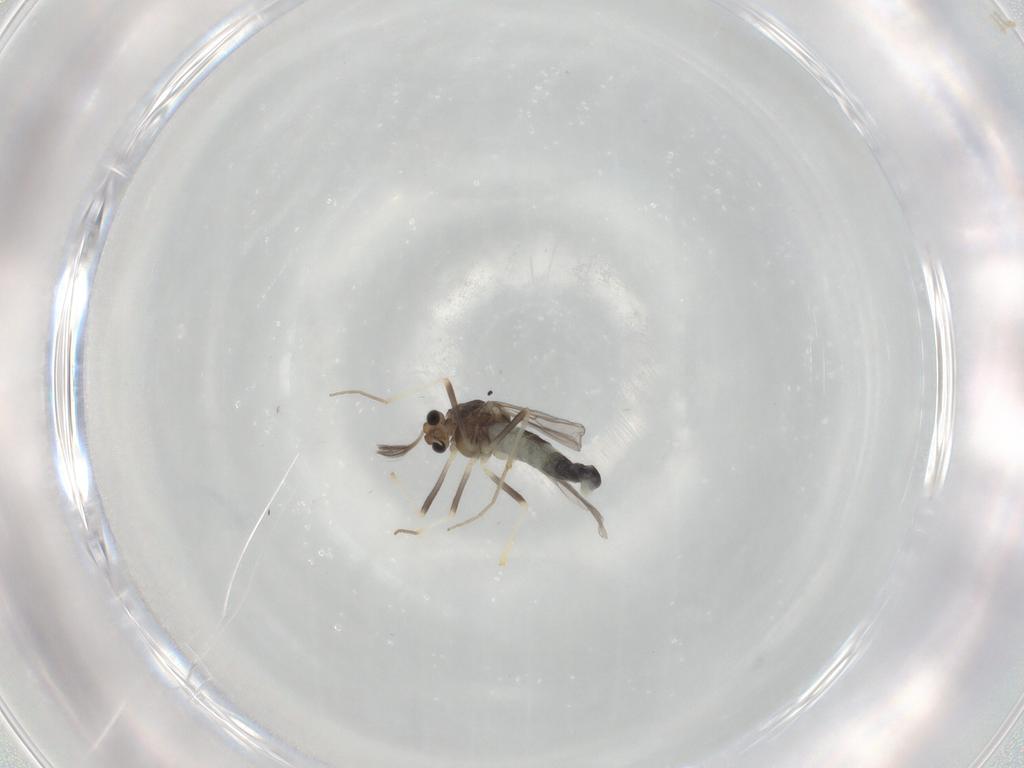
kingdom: Animalia
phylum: Arthropoda
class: Insecta
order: Diptera
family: Chironomidae
